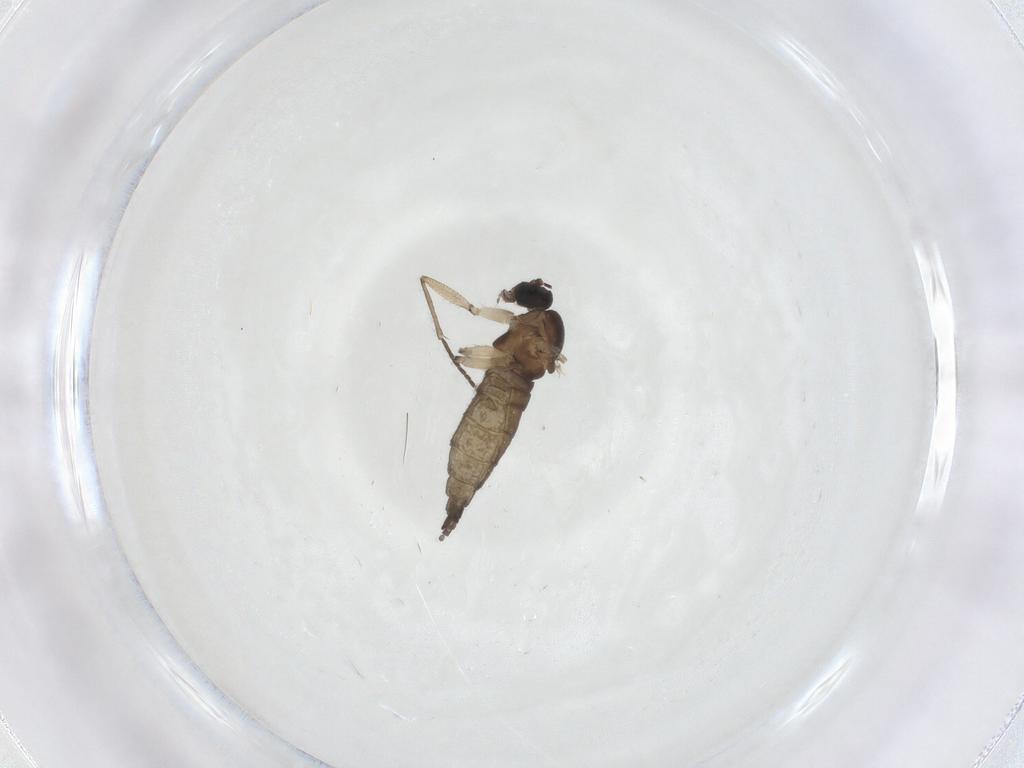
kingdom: Animalia
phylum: Arthropoda
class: Insecta
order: Diptera
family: Sciaridae
